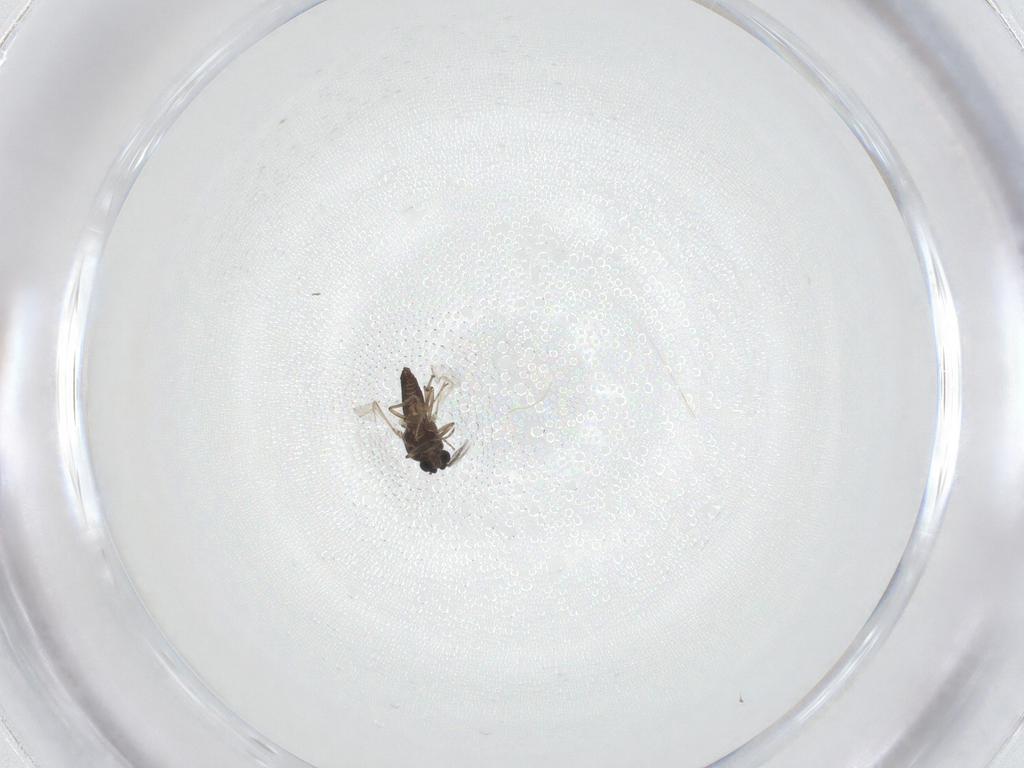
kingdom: Animalia
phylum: Arthropoda
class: Insecta
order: Diptera
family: Ceratopogonidae
